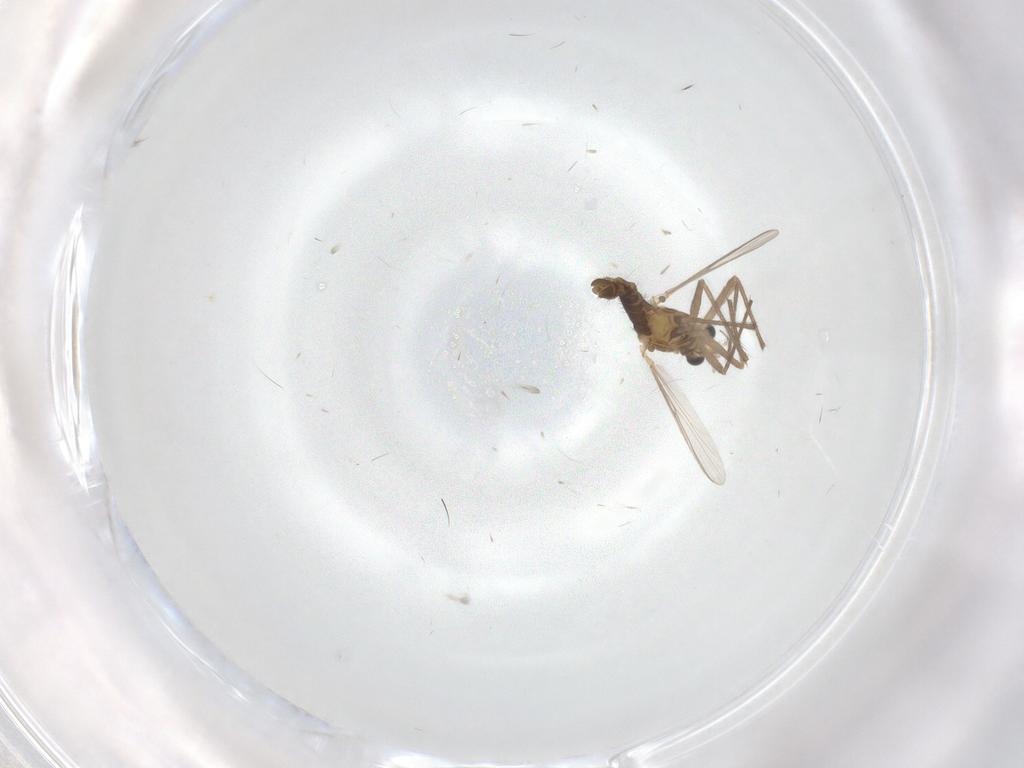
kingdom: Animalia
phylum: Arthropoda
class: Insecta
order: Diptera
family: Chironomidae
